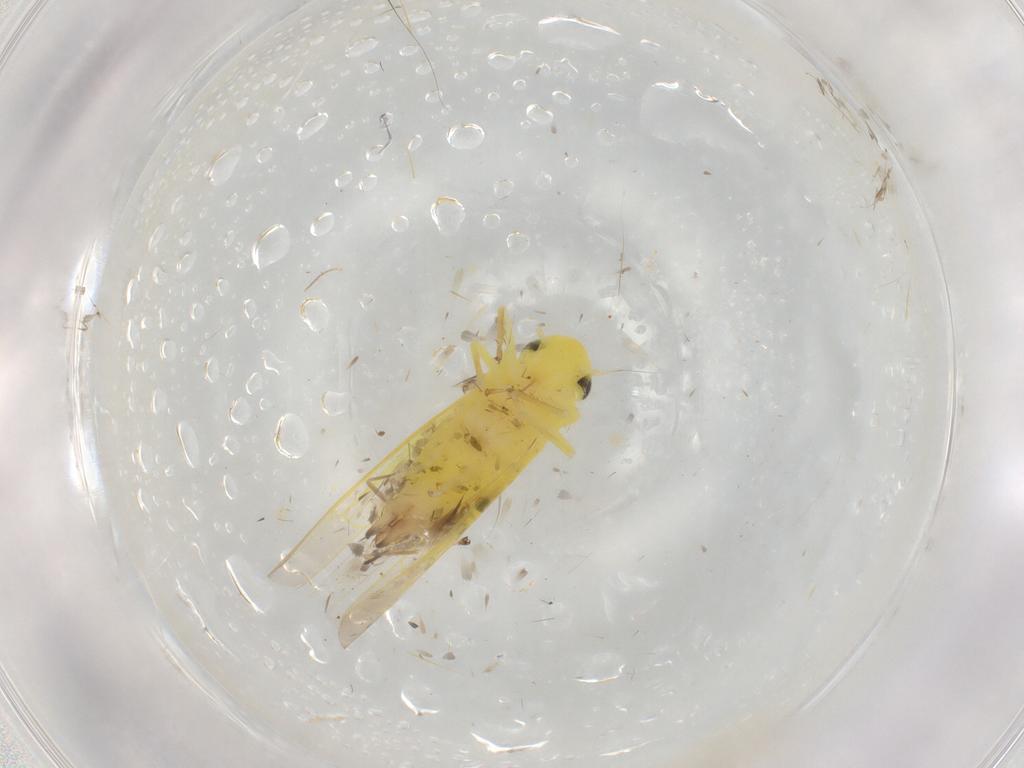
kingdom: Animalia
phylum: Arthropoda
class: Insecta
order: Hemiptera
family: Cicadellidae
